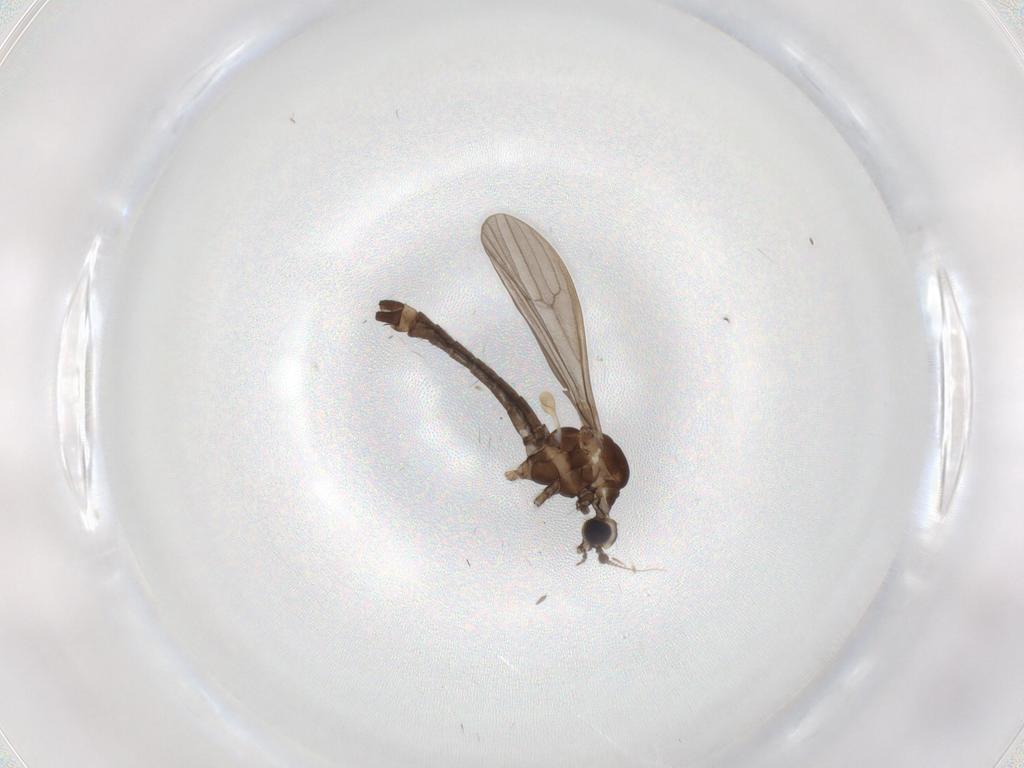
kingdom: Animalia
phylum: Arthropoda
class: Insecta
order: Diptera
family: Limoniidae
